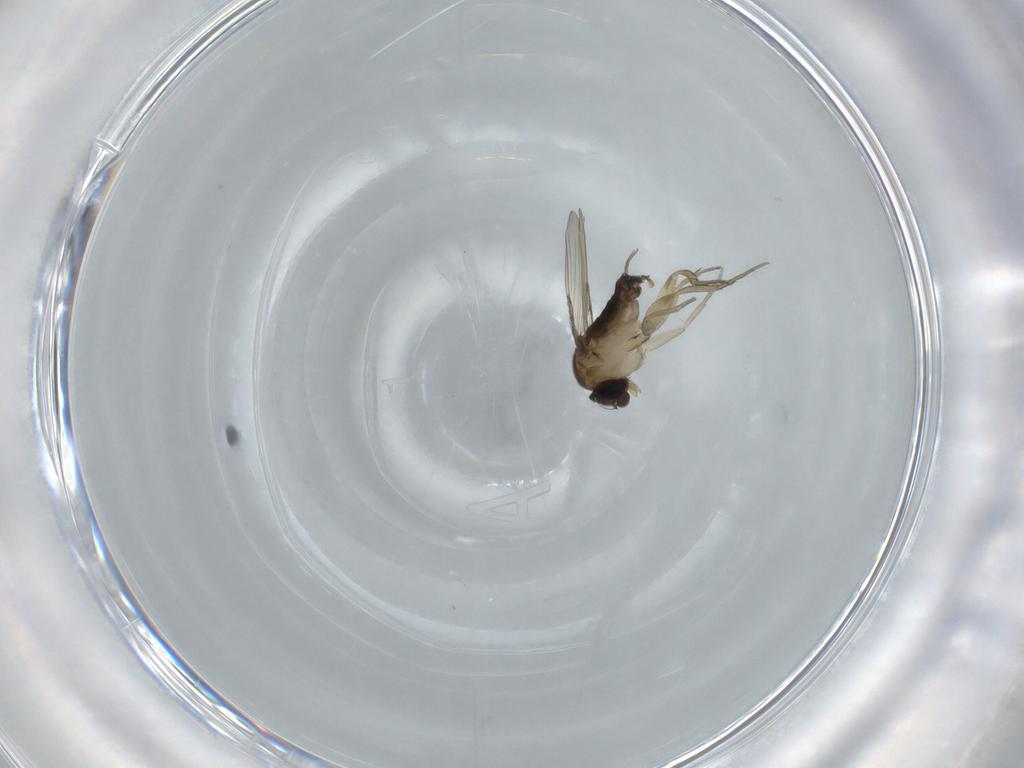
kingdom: Animalia
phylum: Arthropoda
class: Insecta
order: Diptera
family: Phoridae
